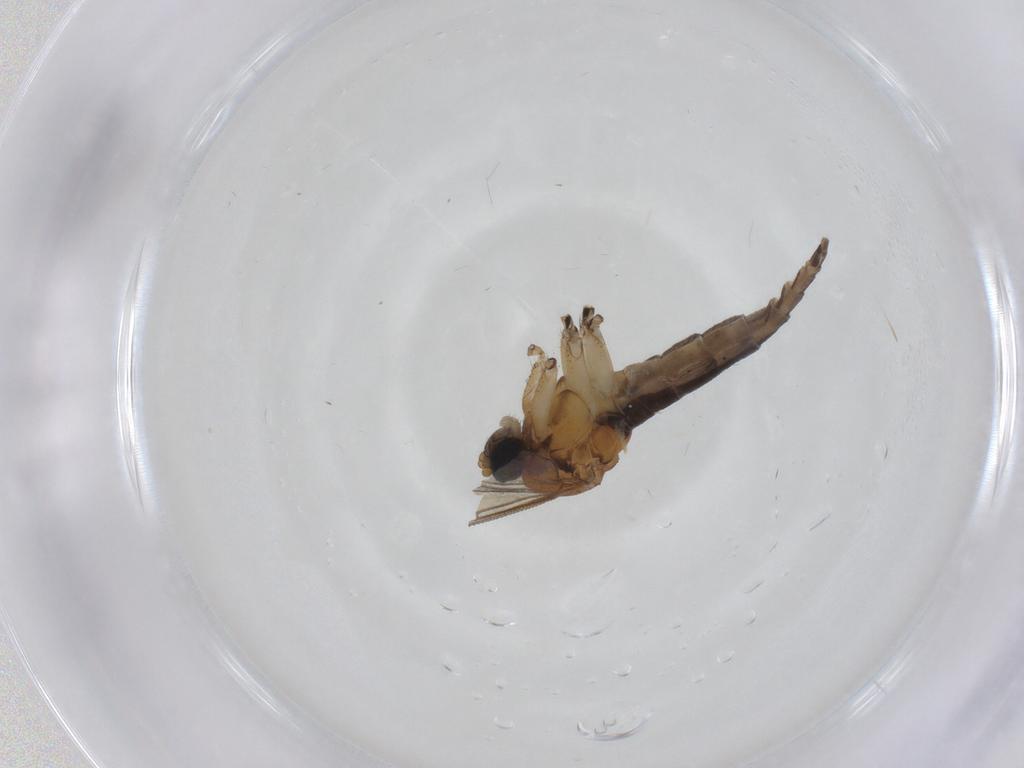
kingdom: Animalia
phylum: Arthropoda
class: Insecta
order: Diptera
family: Sciaridae
